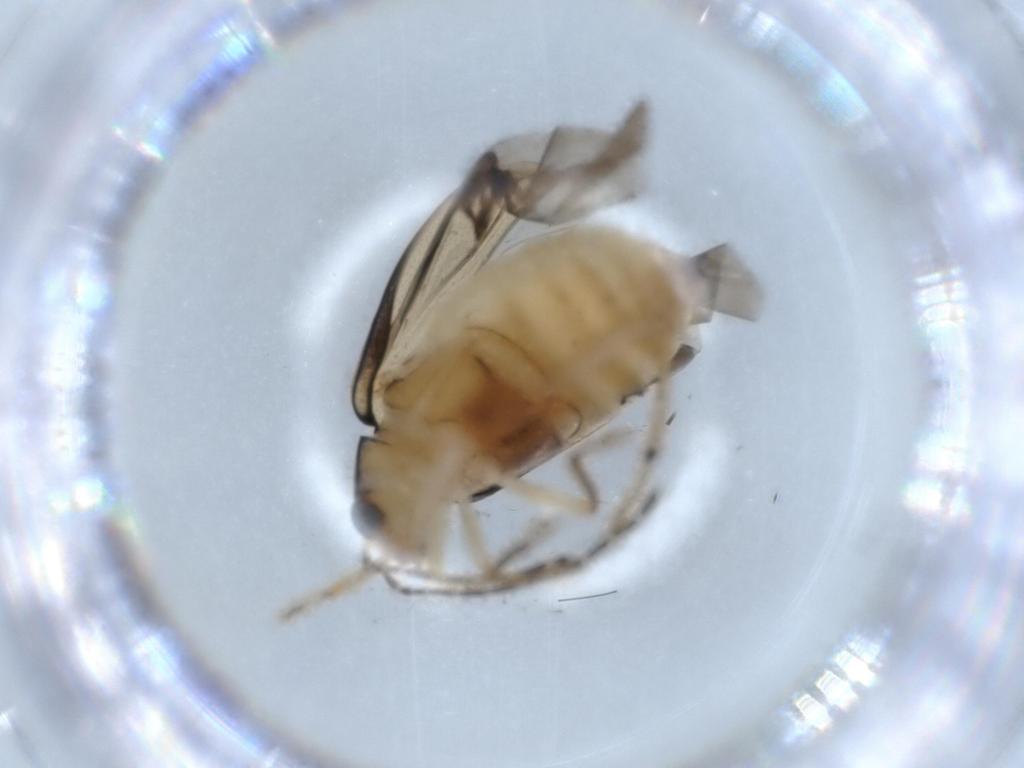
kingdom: Animalia
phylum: Arthropoda
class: Insecta
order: Coleoptera
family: Throscidae
